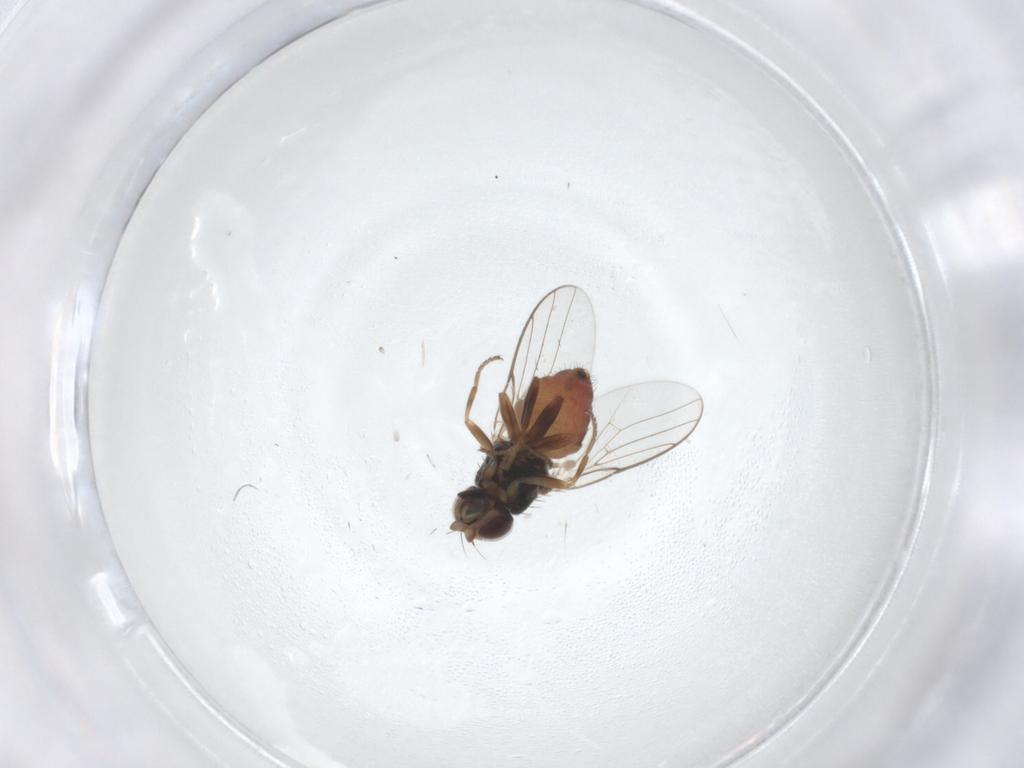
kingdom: Animalia
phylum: Arthropoda
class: Insecta
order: Diptera
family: Chloropidae
